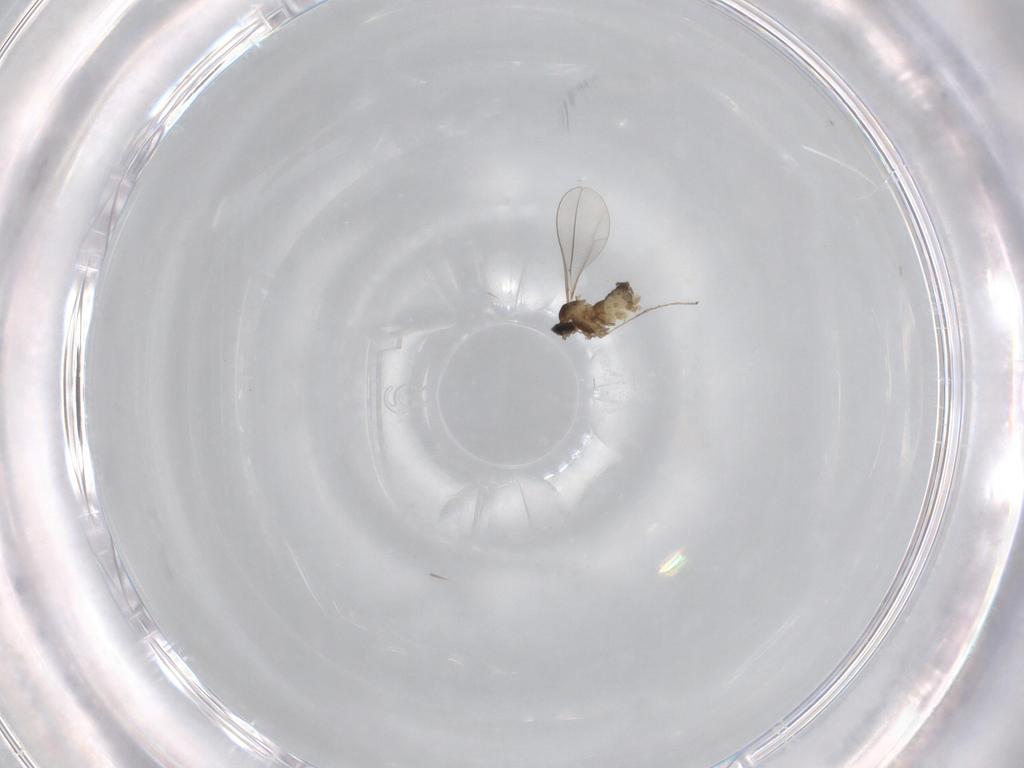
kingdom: Animalia
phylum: Arthropoda
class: Insecta
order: Diptera
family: Cecidomyiidae
